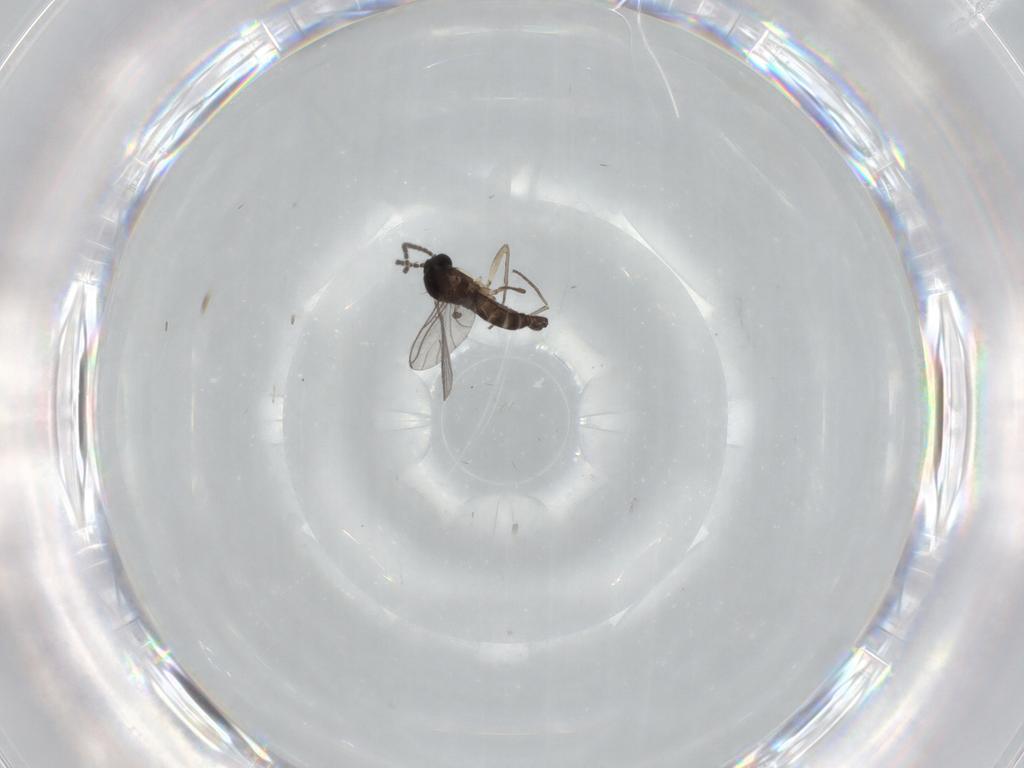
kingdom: Animalia
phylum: Arthropoda
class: Insecta
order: Diptera
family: Sciaridae
